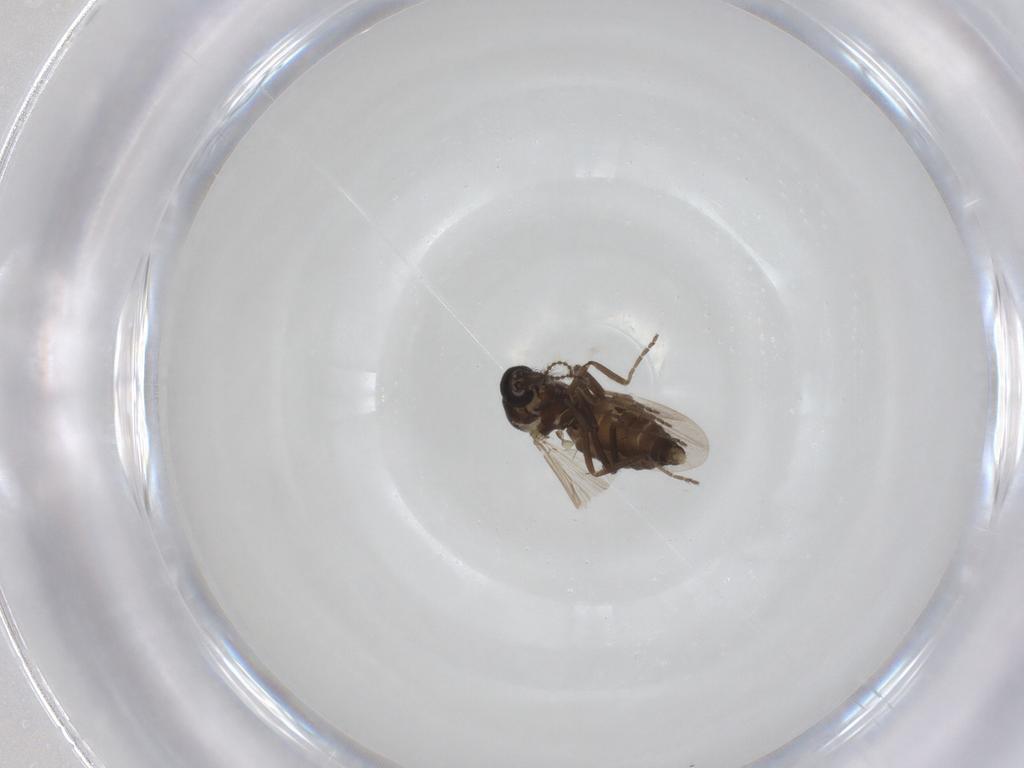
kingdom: Animalia
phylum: Arthropoda
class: Insecta
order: Diptera
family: Ceratopogonidae
